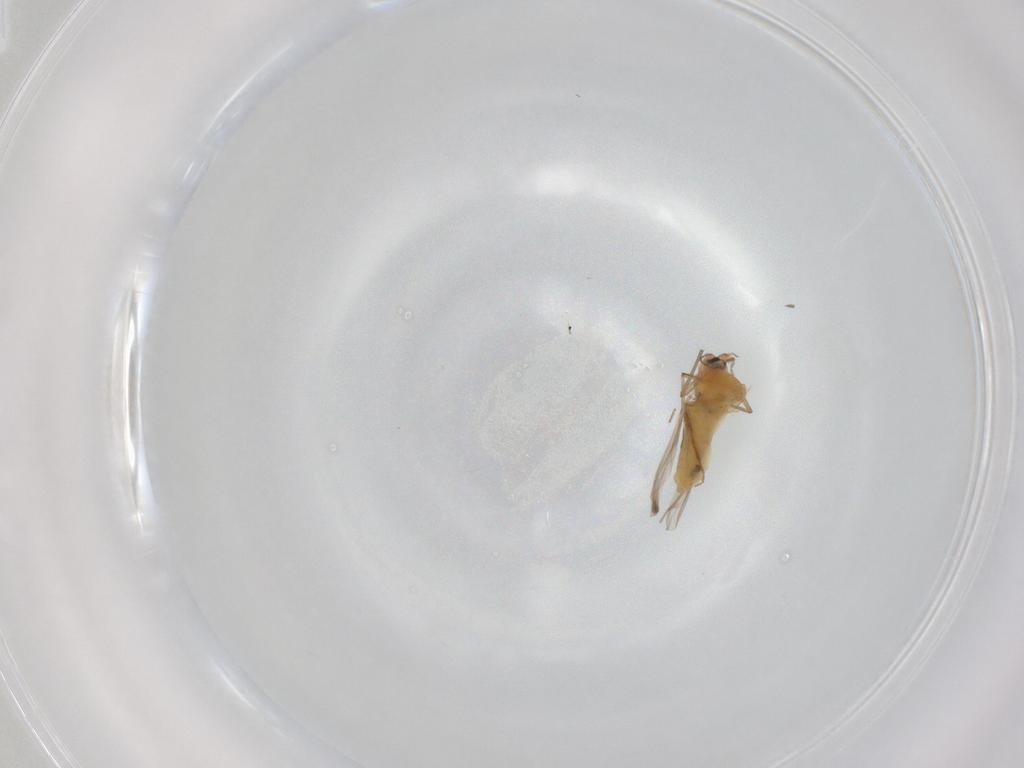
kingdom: Animalia
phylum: Arthropoda
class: Insecta
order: Diptera
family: Chironomidae
